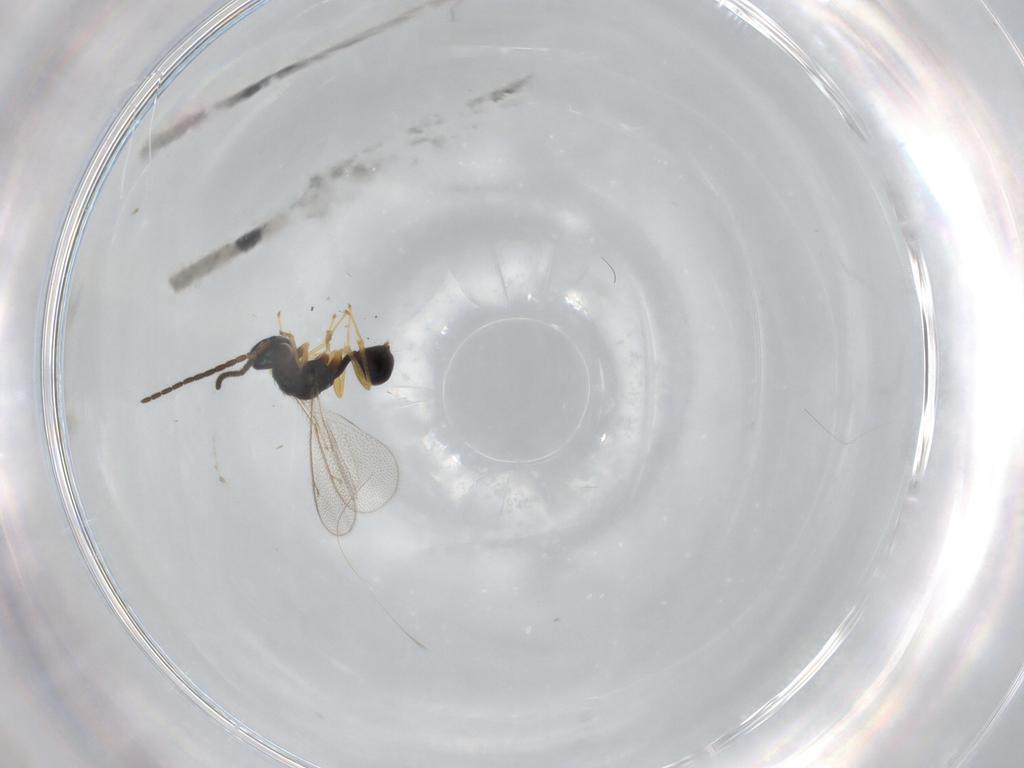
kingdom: Animalia
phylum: Arthropoda
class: Insecta
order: Hymenoptera
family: Diparidae
